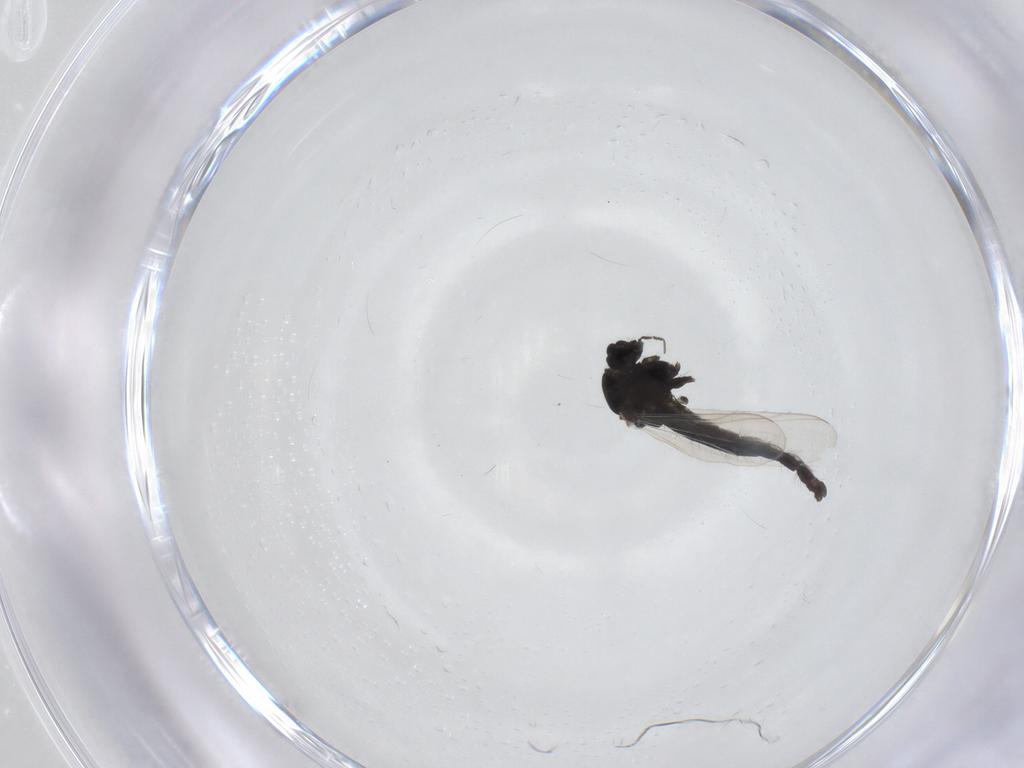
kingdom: Animalia
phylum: Arthropoda
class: Insecta
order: Diptera
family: Chironomidae
